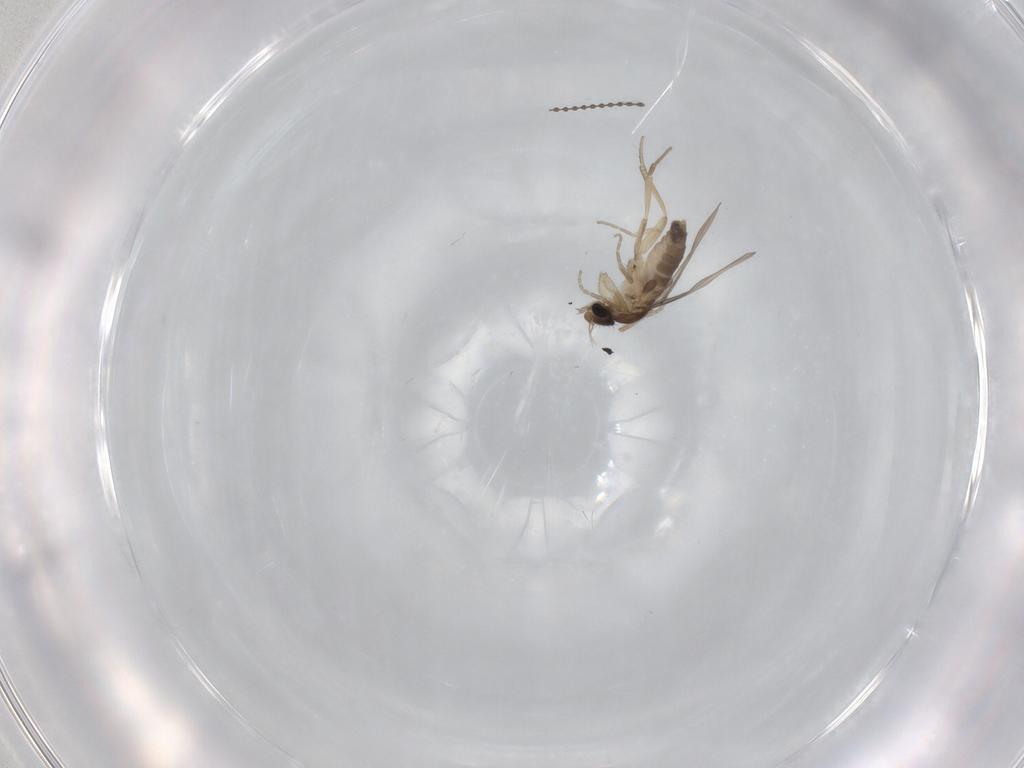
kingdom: Animalia
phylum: Arthropoda
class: Insecta
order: Diptera
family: Phoridae
